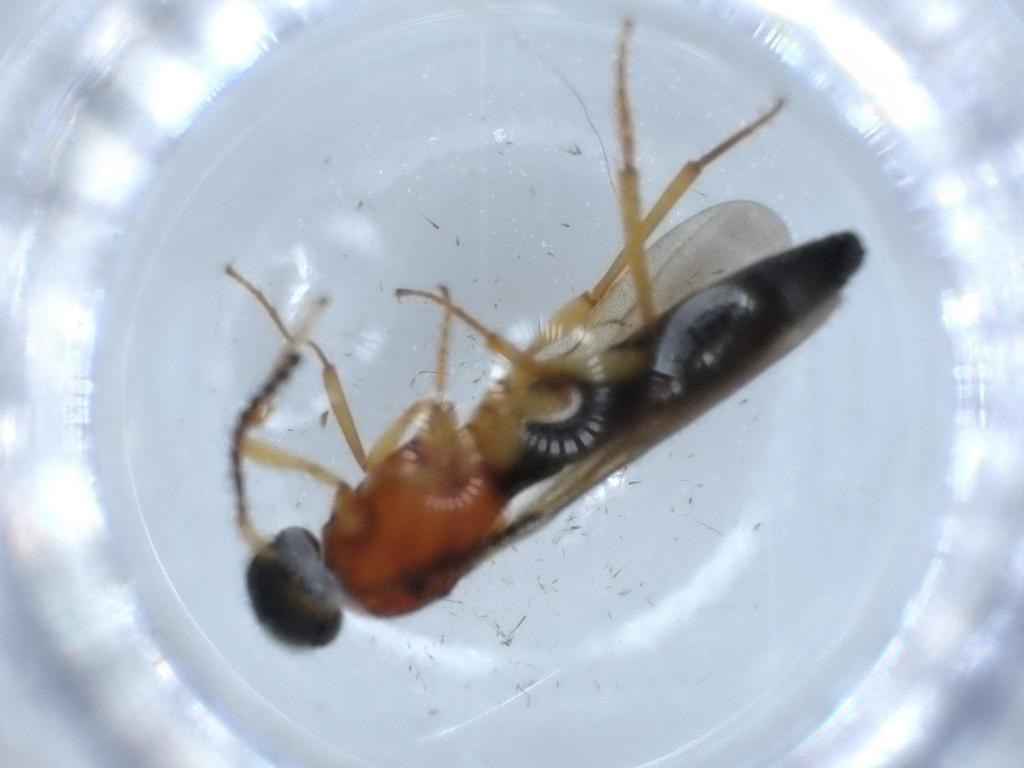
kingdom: Animalia
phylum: Arthropoda
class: Insecta
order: Hymenoptera
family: Scelionidae
